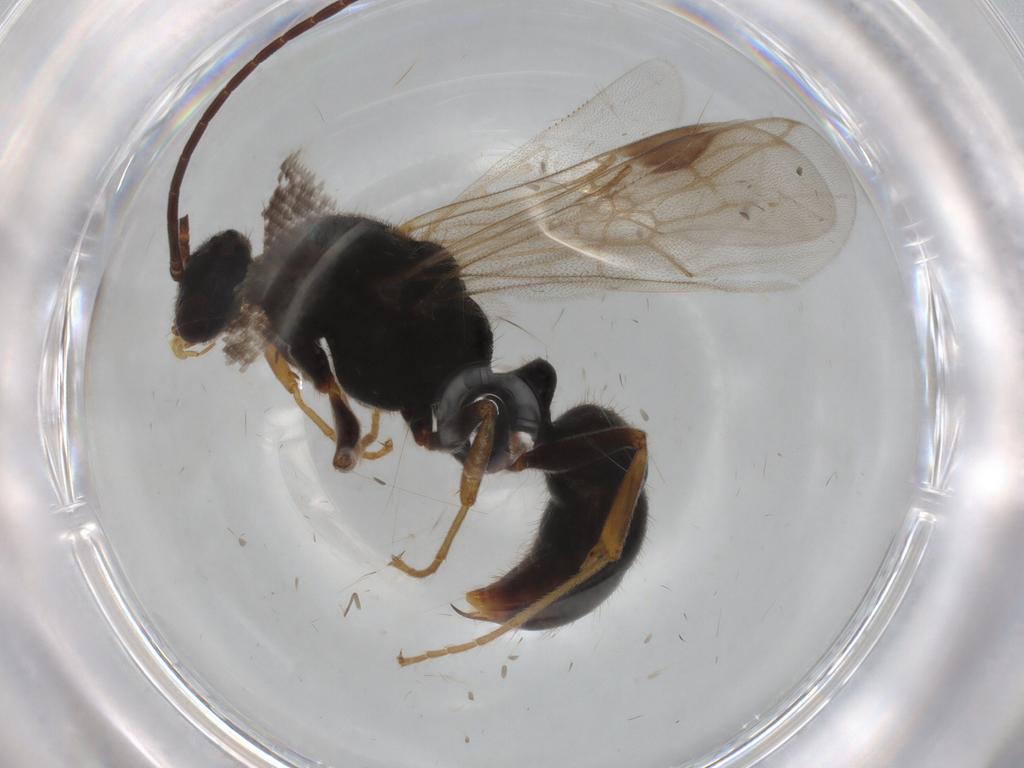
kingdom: Animalia
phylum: Arthropoda
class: Insecta
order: Hymenoptera
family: Formicidae
